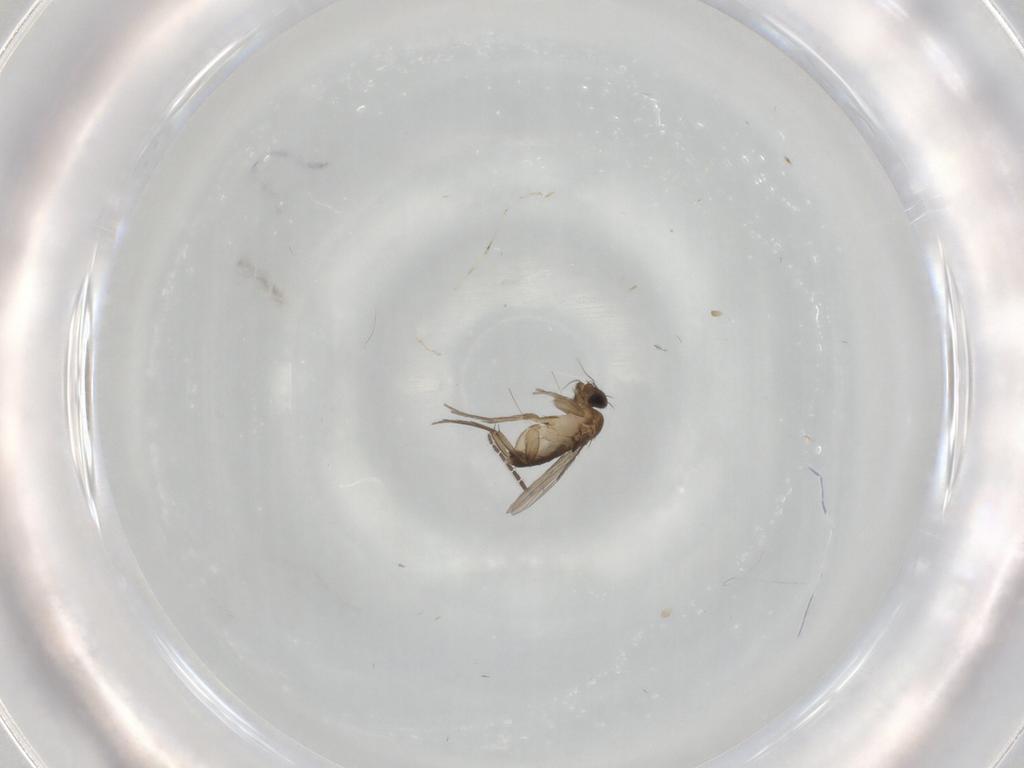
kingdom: Animalia
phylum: Arthropoda
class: Insecta
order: Diptera
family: Phoridae
